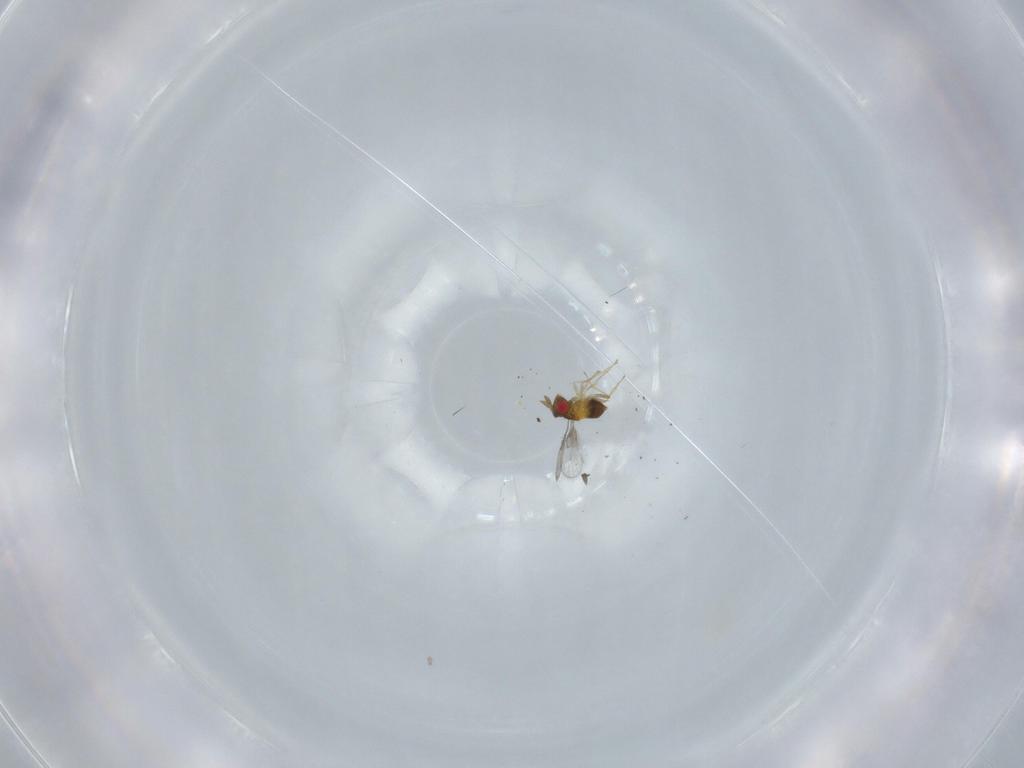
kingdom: Animalia
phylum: Arthropoda
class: Insecta
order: Hymenoptera
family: Trichogrammatidae
